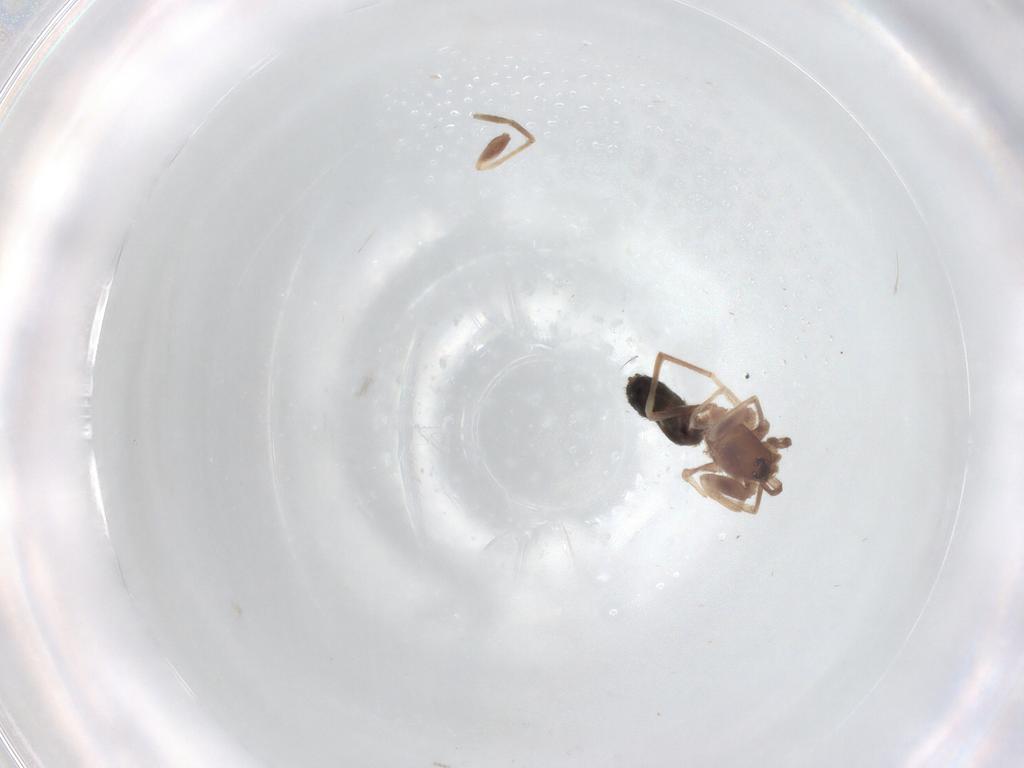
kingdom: Animalia
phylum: Arthropoda
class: Arachnida
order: Araneae
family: Gnaphosidae
